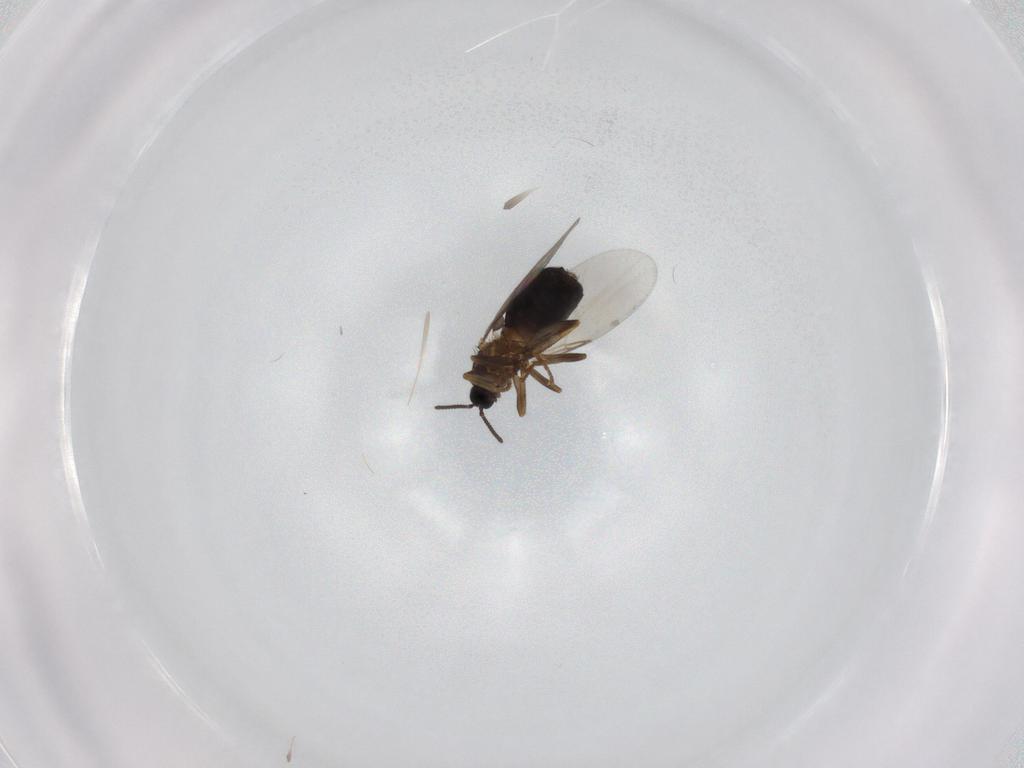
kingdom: Animalia
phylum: Arthropoda
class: Insecta
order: Diptera
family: Scatopsidae
